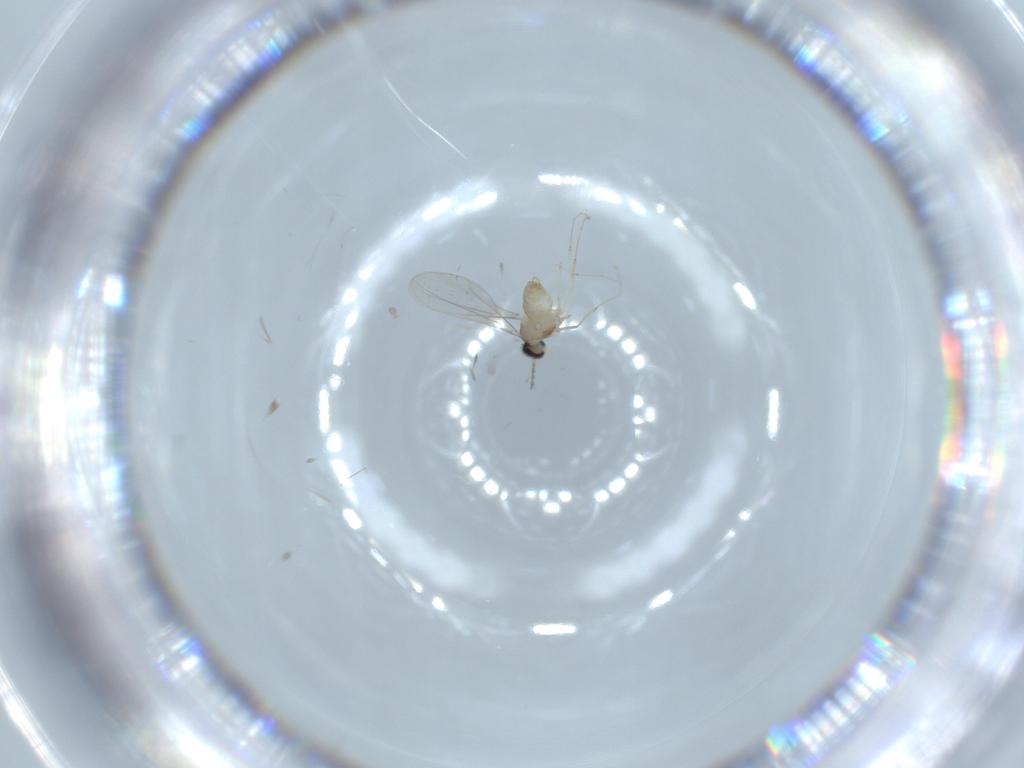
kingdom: Animalia
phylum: Arthropoda
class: Insecta
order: Diptera
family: Cecidomyiidae
